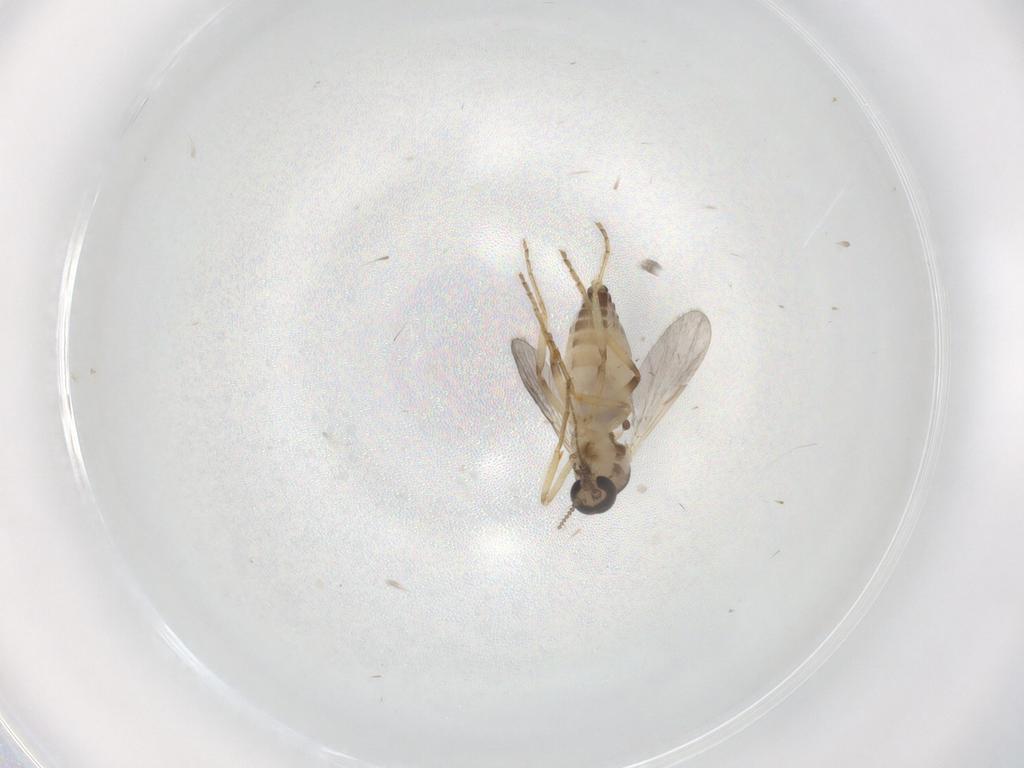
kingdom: Animalia
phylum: Arthropoda
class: Insecta
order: Diptera
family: Ceratopogonidae
